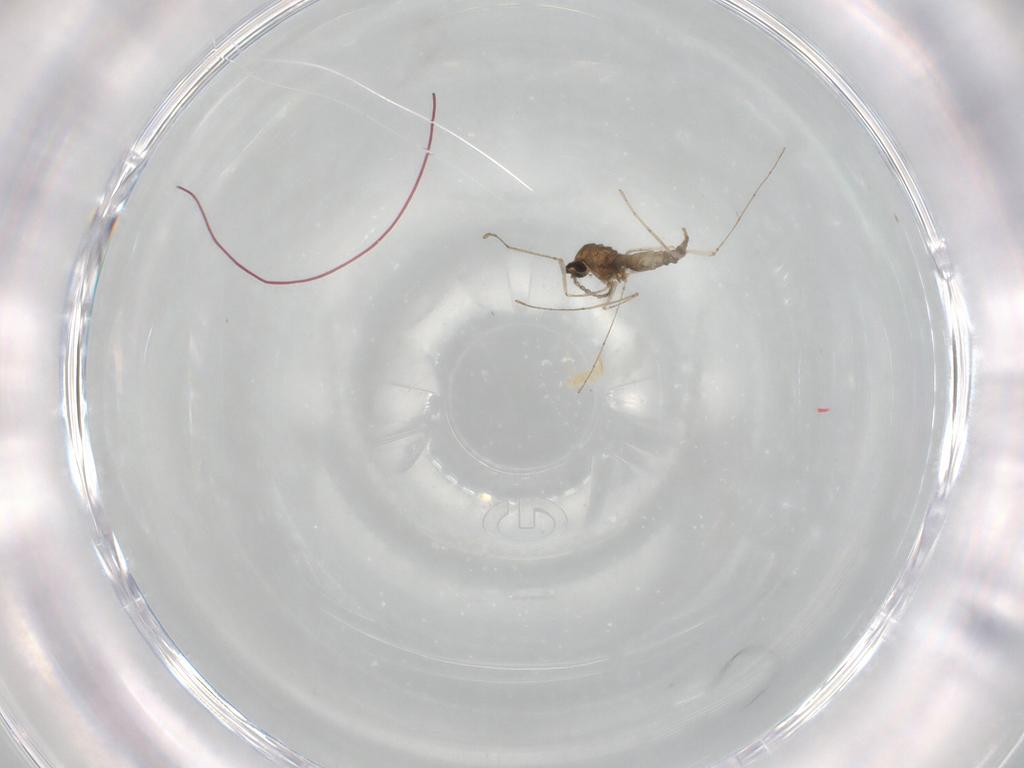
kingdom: Animalia
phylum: Arthropoda
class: Insecta
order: Diptera
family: Cecidomyiidae
